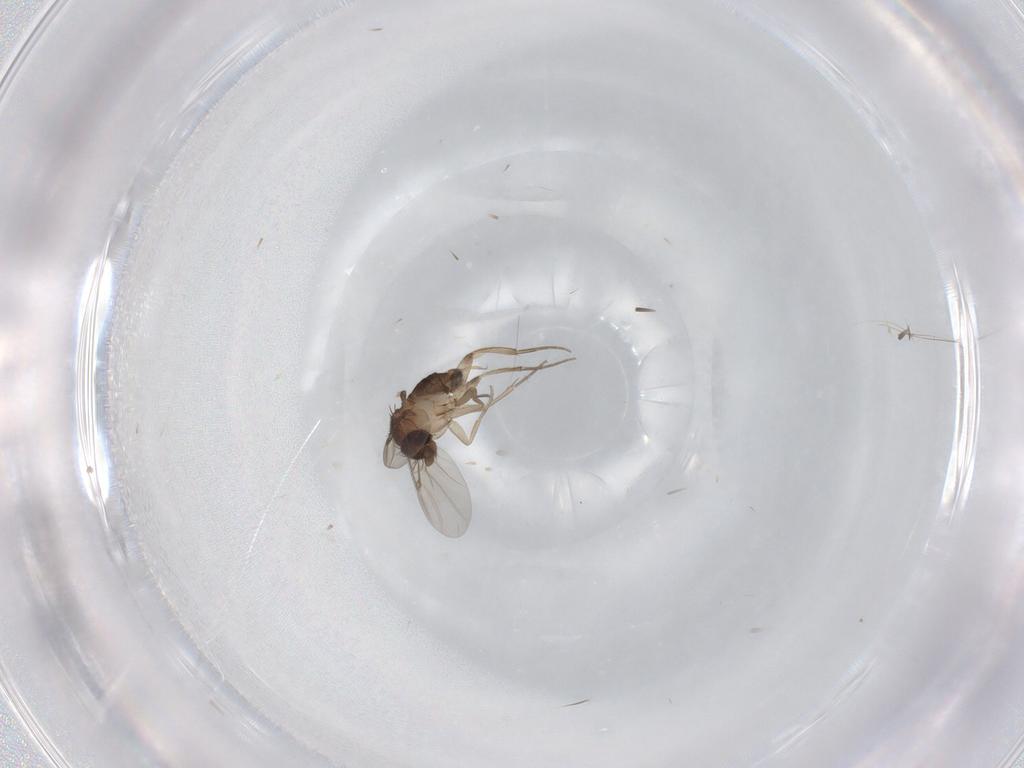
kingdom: Animalia
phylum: Arthropoda
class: Insecta
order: Diptera
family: Phoridae
